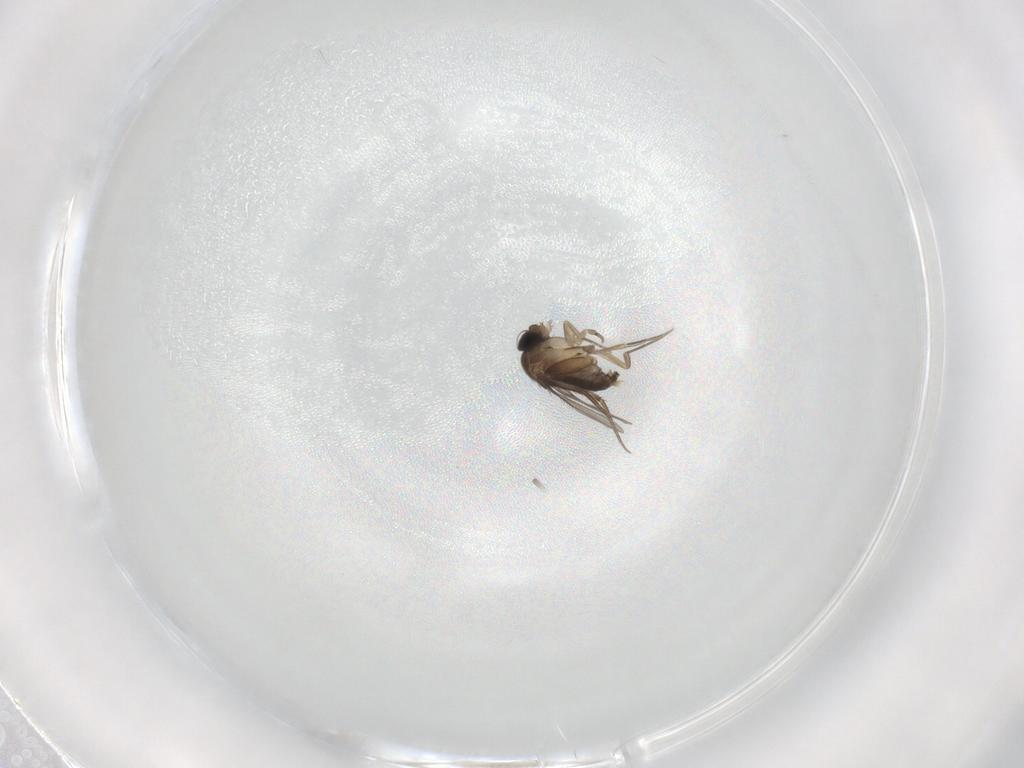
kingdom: Animalia
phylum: Arthropoda
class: Insecta
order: Diptera
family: Phoridae
